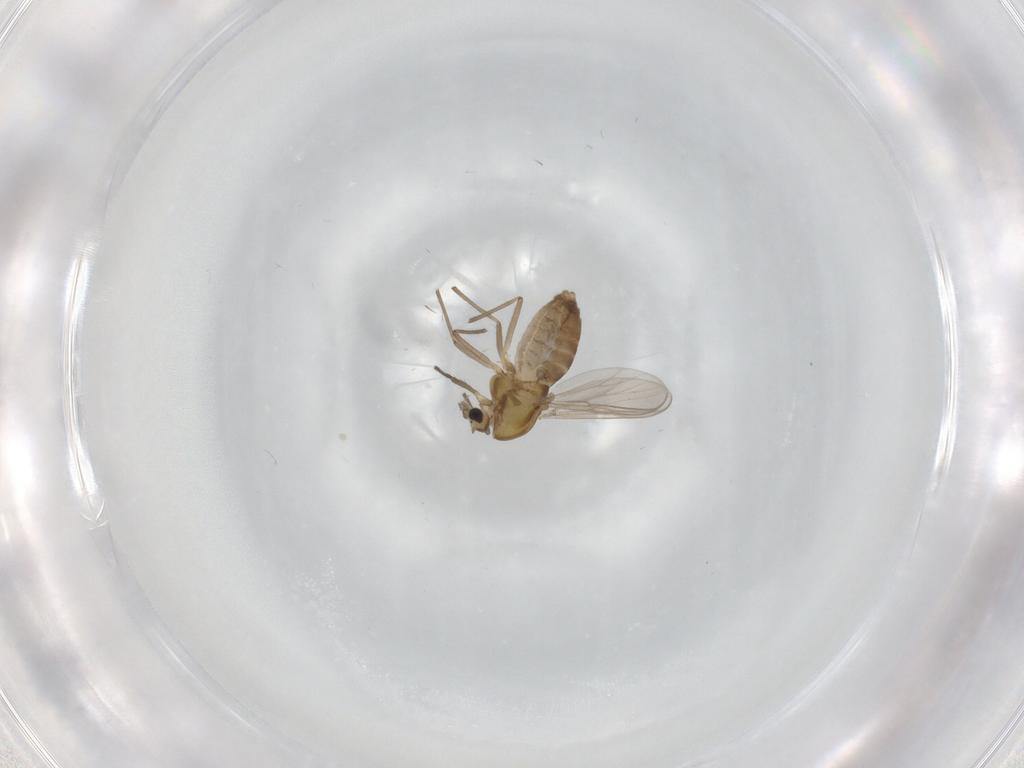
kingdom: Animalia
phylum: Arthropoda
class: Insecta
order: Diptera
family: Chironomidae
